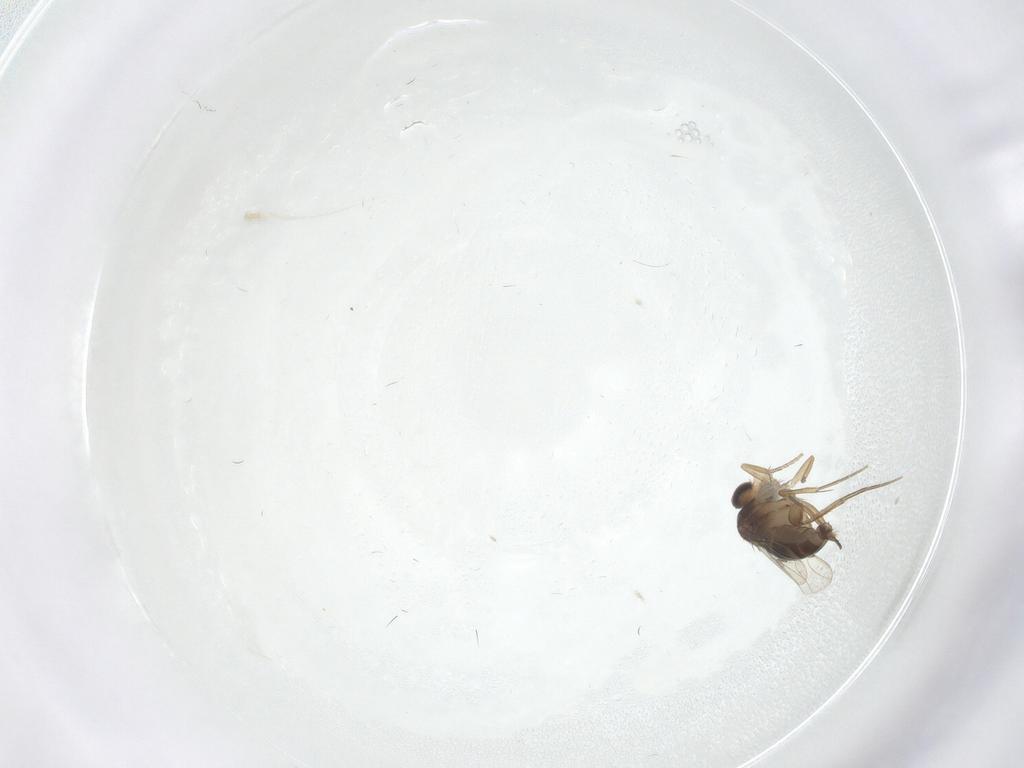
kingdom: Animalia
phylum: Arthropoda
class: Insecta
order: Diptera
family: Phoridae
